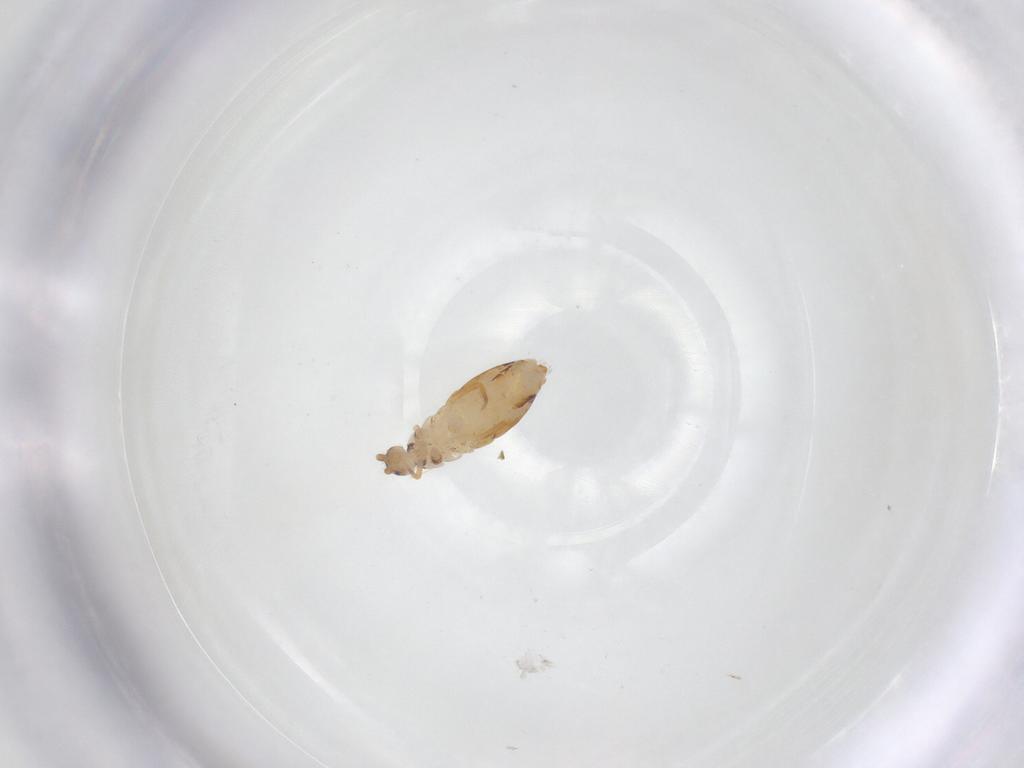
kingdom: Animalia
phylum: Arthropoda
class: Collembola
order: Entomobryomorpha
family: Entomobryidae
